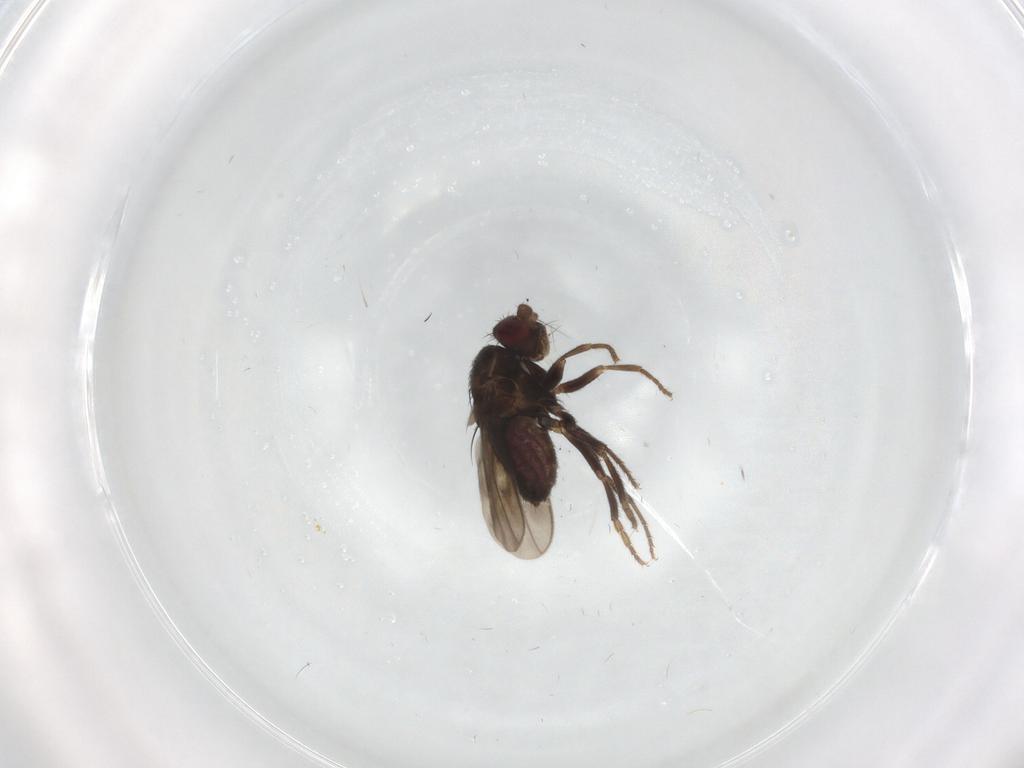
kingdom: Animalia
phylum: Arthropoda
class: Insecta
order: Diptera
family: Sphaeroceridae
